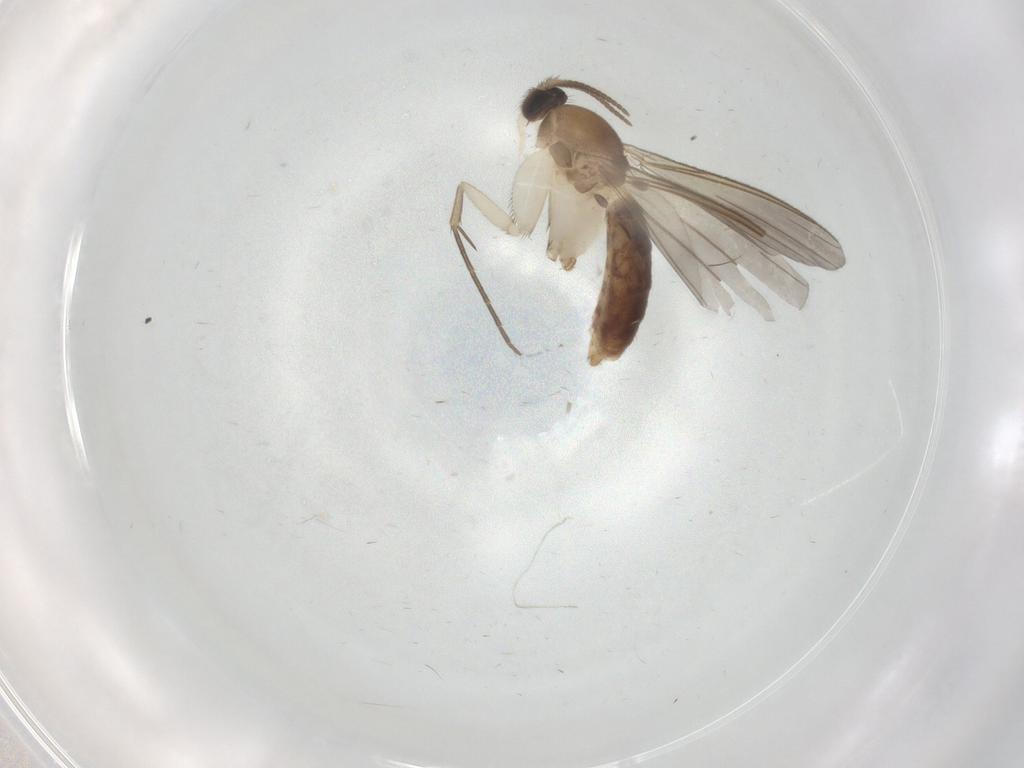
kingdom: Animalia
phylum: Arthropoda
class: Insecta
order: Diptera
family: Mycetophilidae
